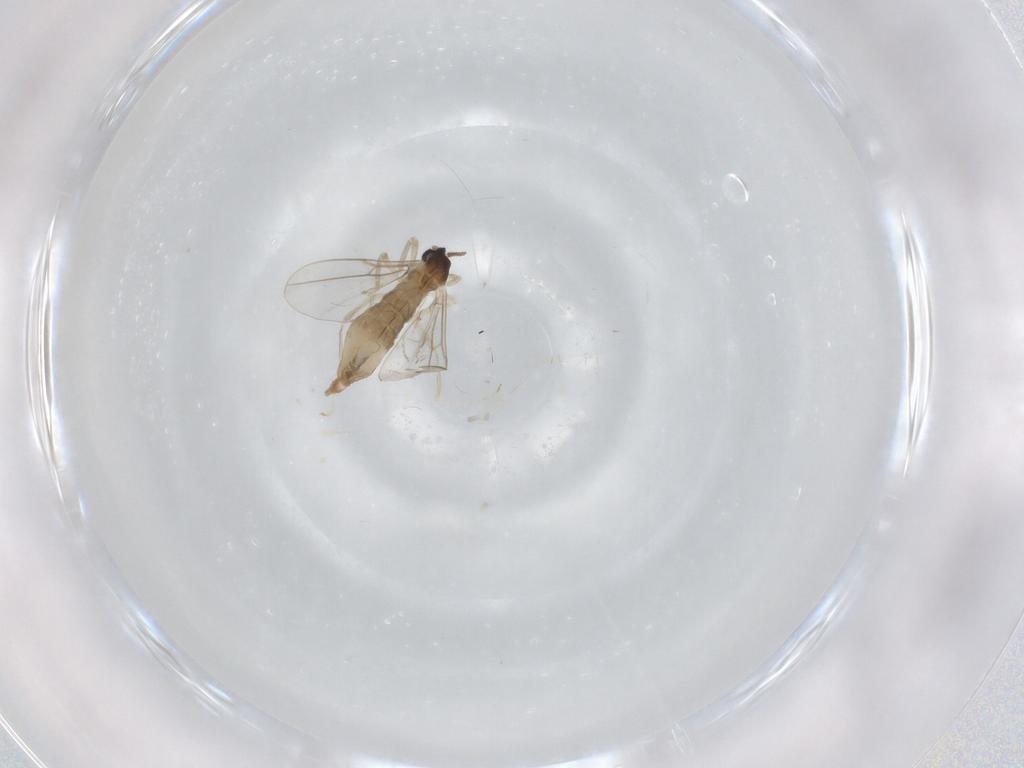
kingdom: Animalia
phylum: Arthropoda
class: Insecta
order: Diptera
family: Cecidomyiidae
